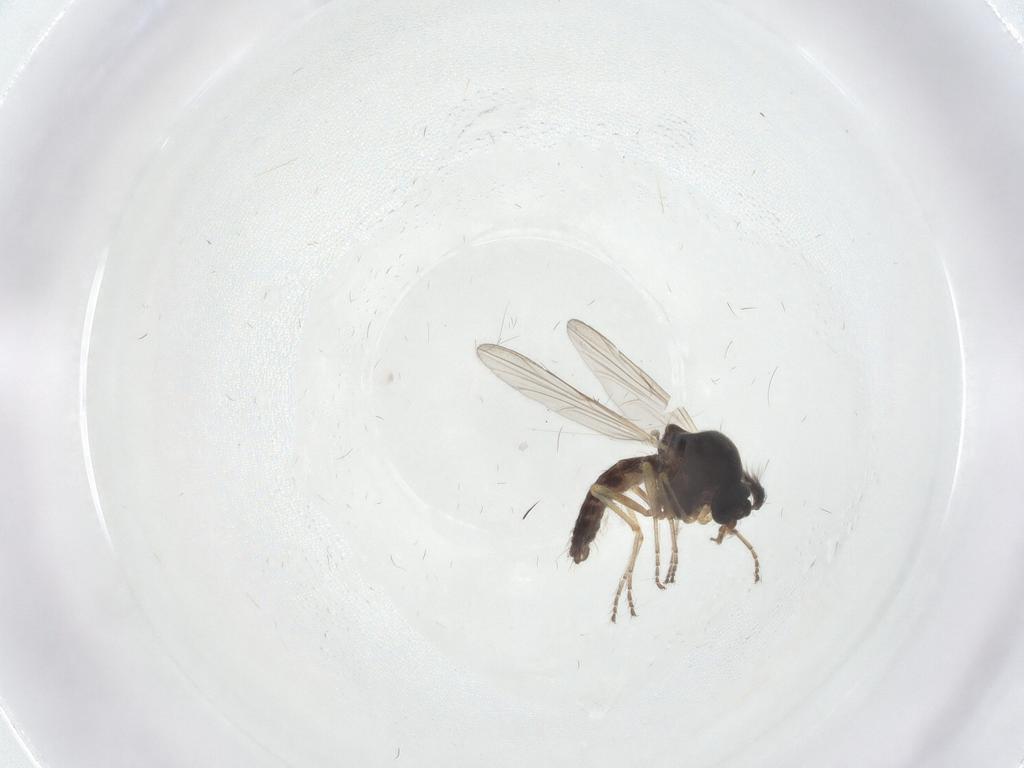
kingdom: Animalia
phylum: Arthropoda
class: Insecta
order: Diptera
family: Ceratopogonidae
